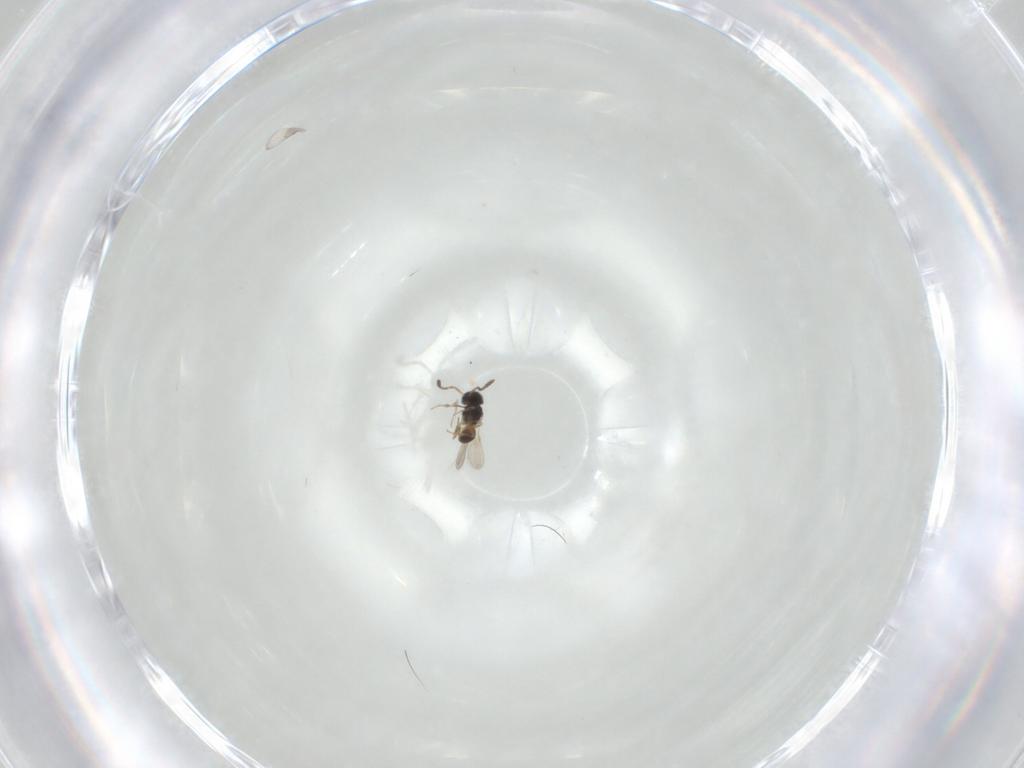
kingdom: Animalia
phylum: Arthropoda
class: Insecta
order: Hymenoptera
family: Scelionidae
